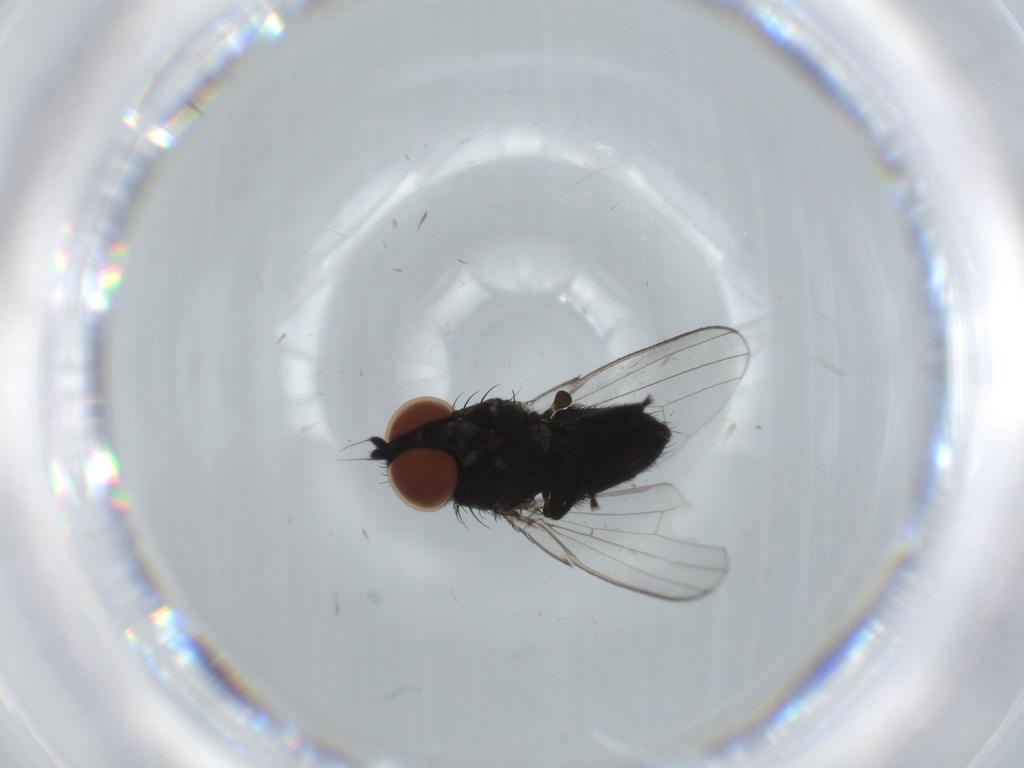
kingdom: Animalia
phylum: Arthropoda
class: Insecta
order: Diptera
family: Milichiidae
